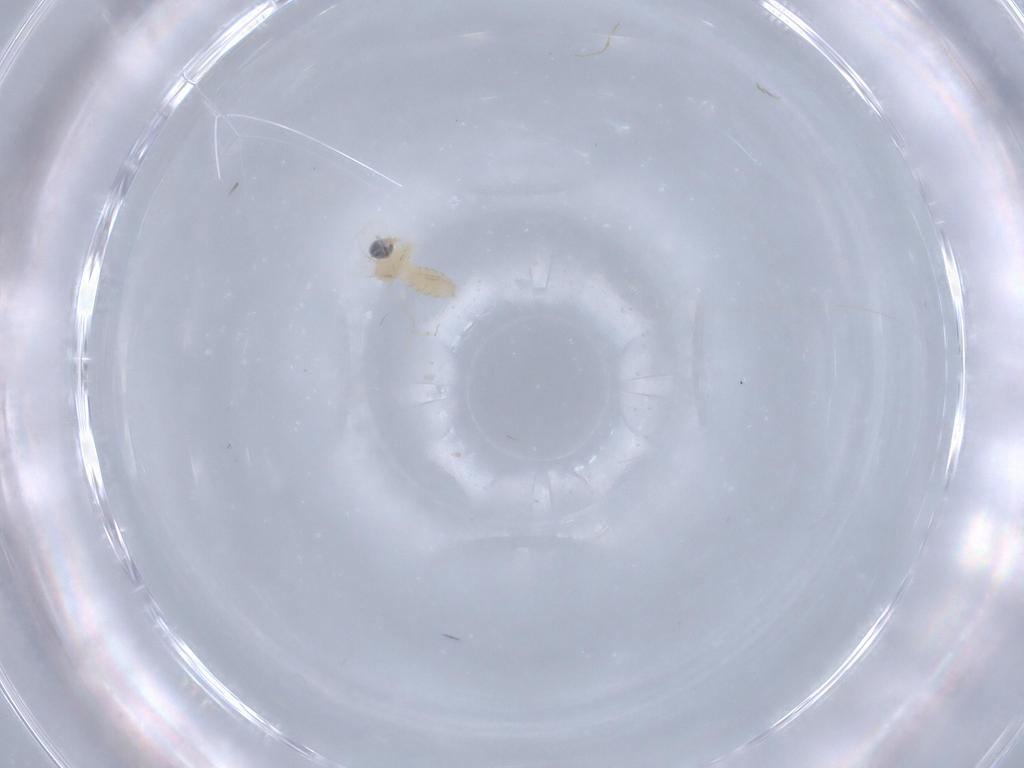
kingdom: Animalia
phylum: Arthropoda
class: Insecta
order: Diptera
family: Cecidomyiidae
